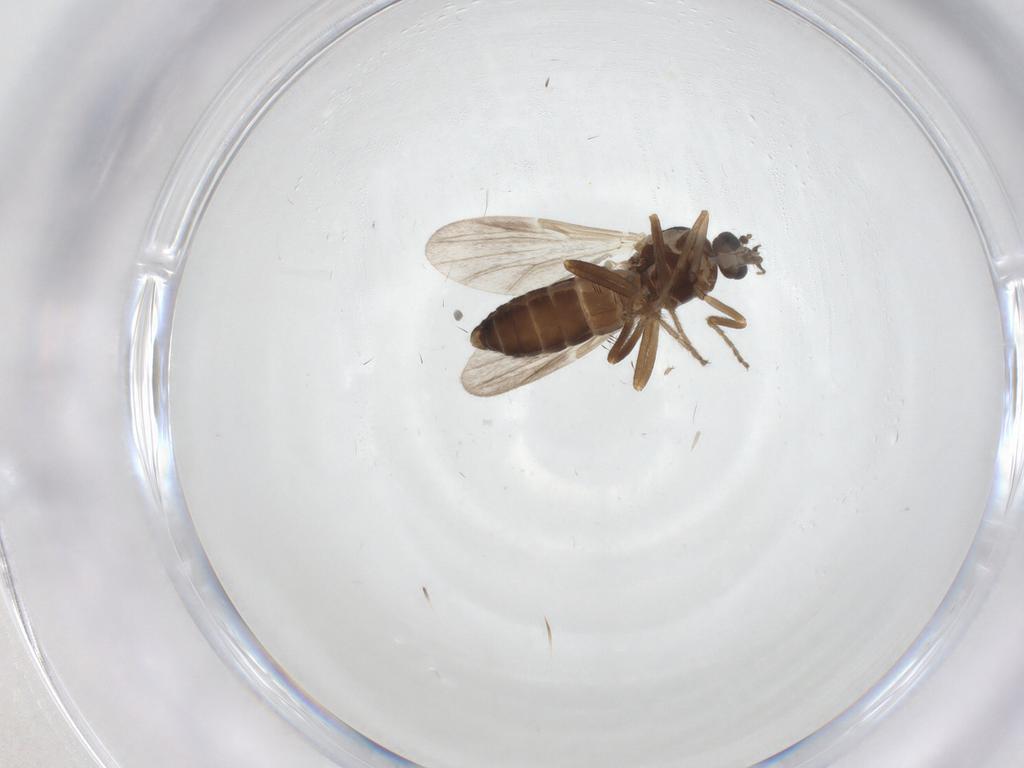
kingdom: Animalia
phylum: Arthropoda
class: Insecta
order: Diptera
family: Ceratopogonidae
